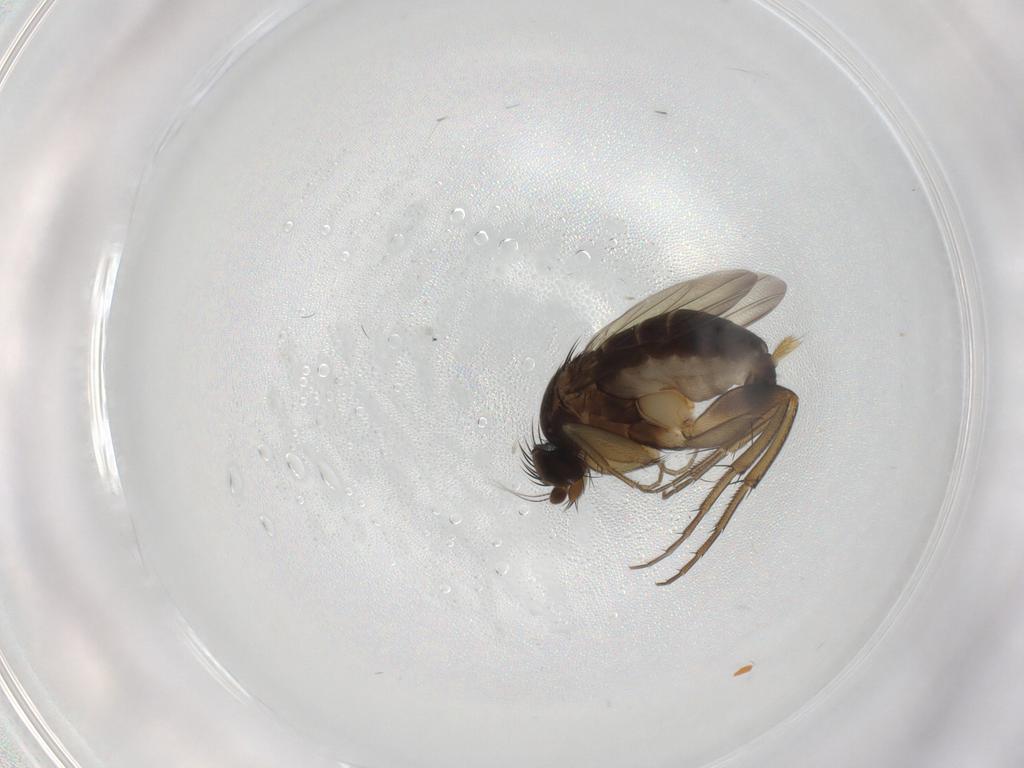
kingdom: Animalia
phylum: Arthropoda
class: Insecta
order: Diptera
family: Phoridae
